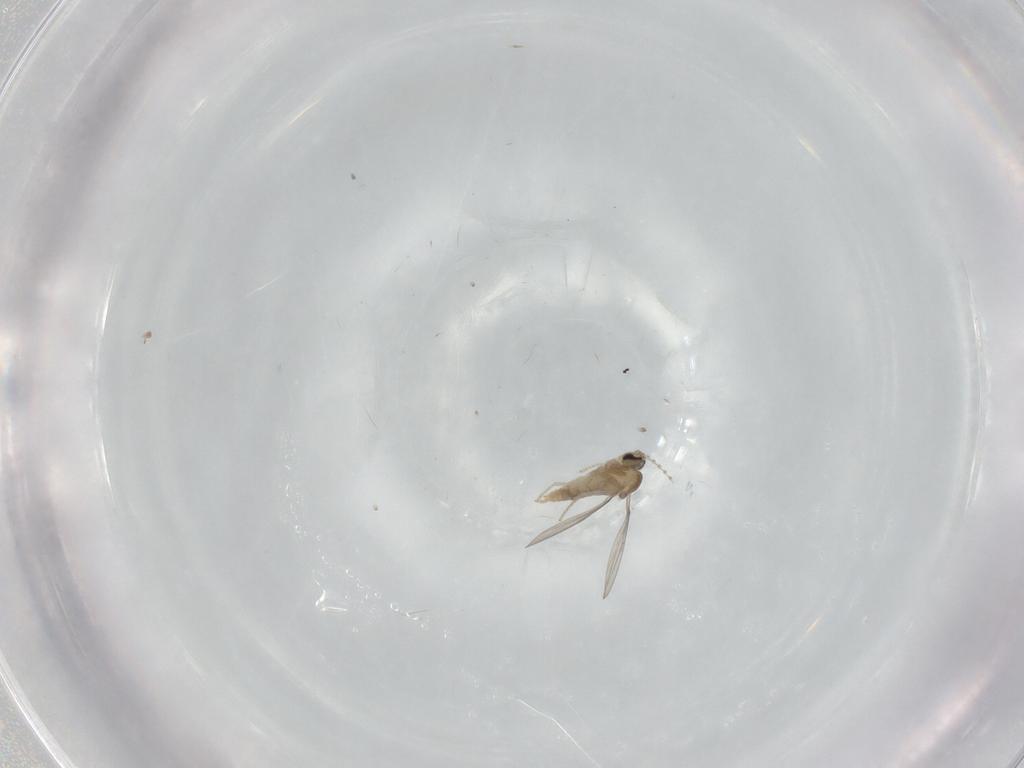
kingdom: Animalia
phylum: Arthropoda
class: Insecta
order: Diptera
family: Cecidomyiidae
